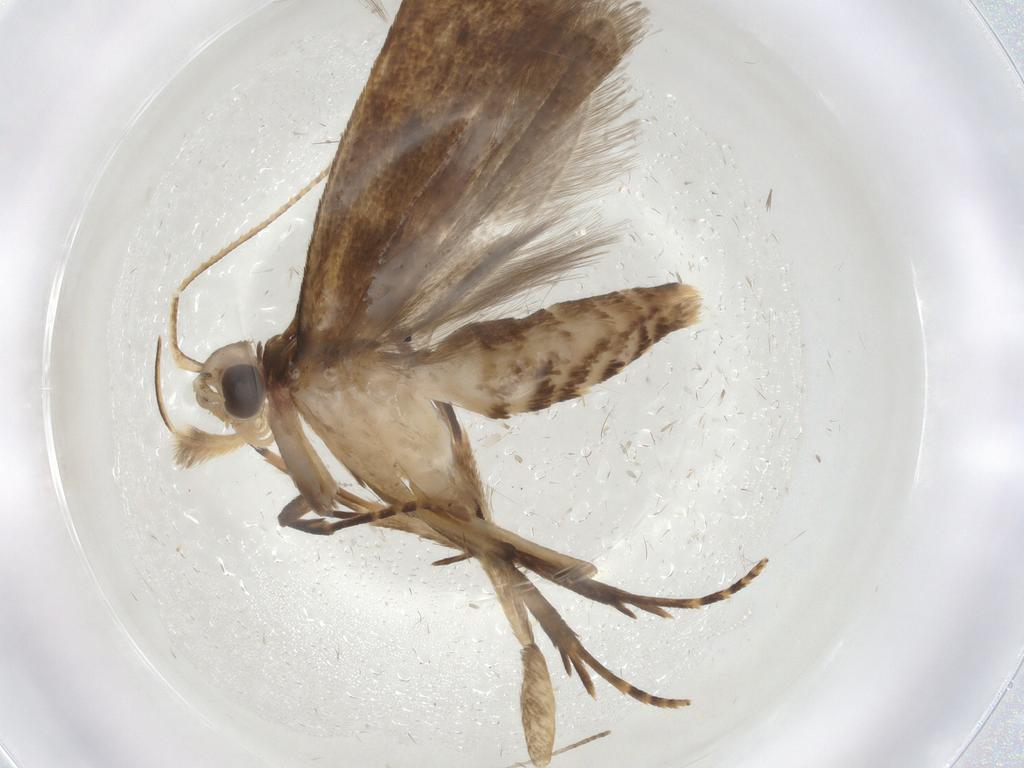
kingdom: Animalia
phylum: Arthropoda
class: Insecta
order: Lepidoptera
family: Gelechiidae
